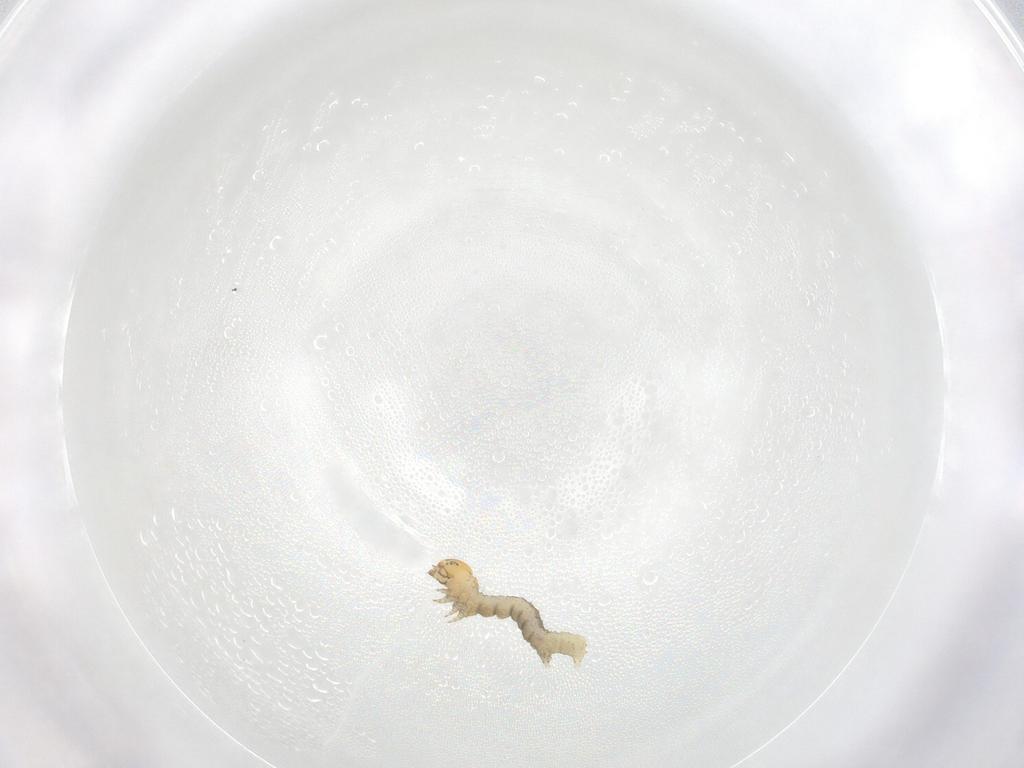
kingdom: Animalia
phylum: Arthropoda
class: Insecta
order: Lepidoptera
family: Geometridae
